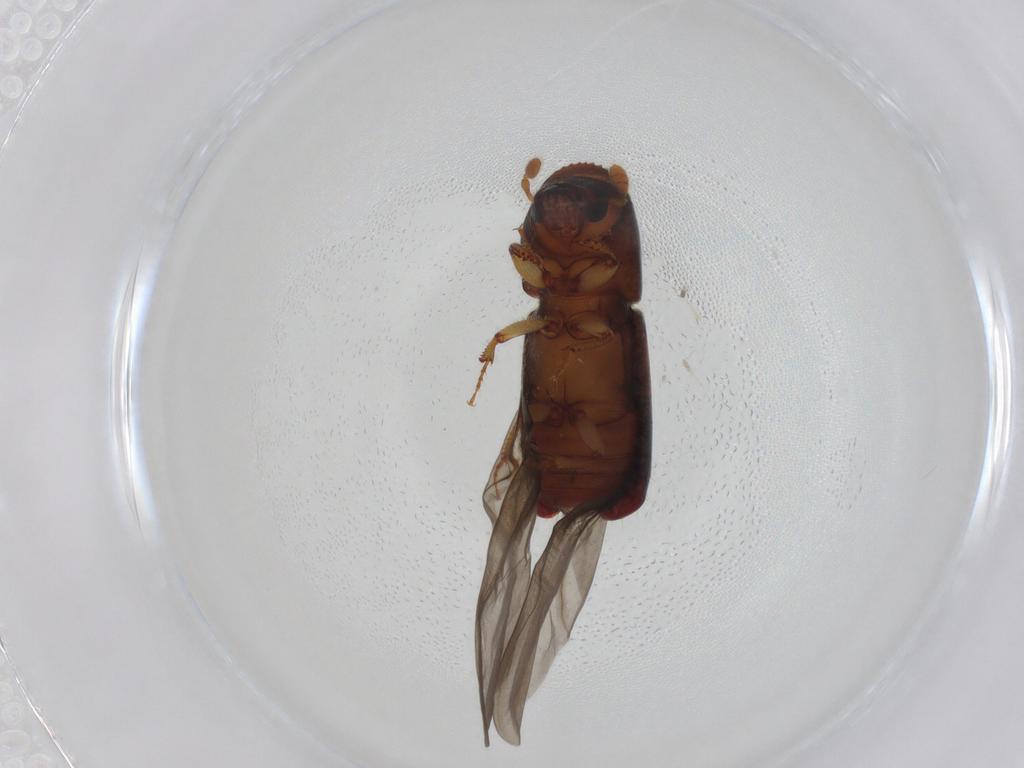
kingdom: Animalia
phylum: Arthropoda
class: Insecta
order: Coleoptera
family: Curculionidae
